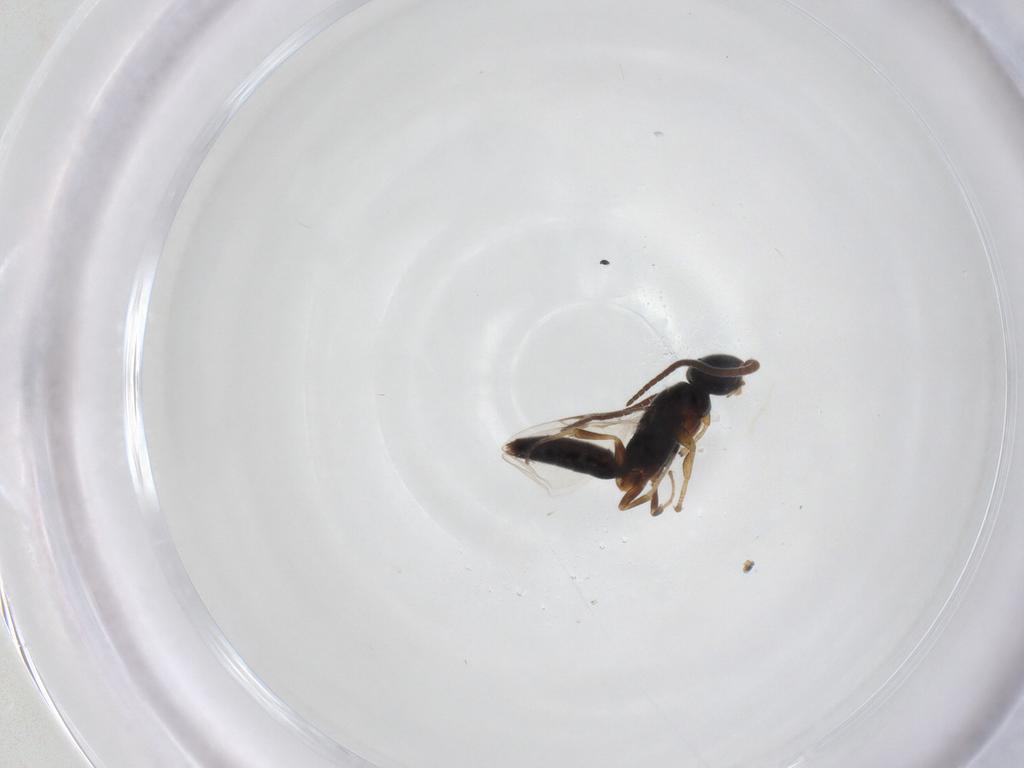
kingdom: Animalia
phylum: Arthropoda
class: Insecta
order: Hymenoptera
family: Sclerogibbidae
